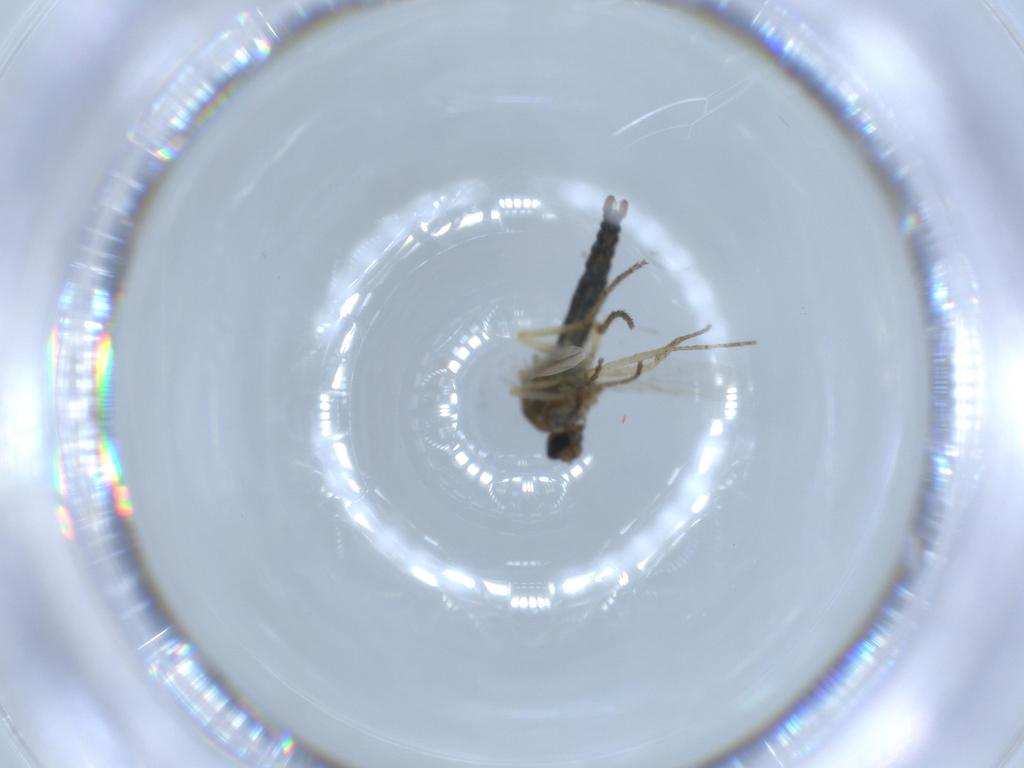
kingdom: Animalia
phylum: Arthropoda
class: Insecta
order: Diptera
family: Ceratopogonidae
